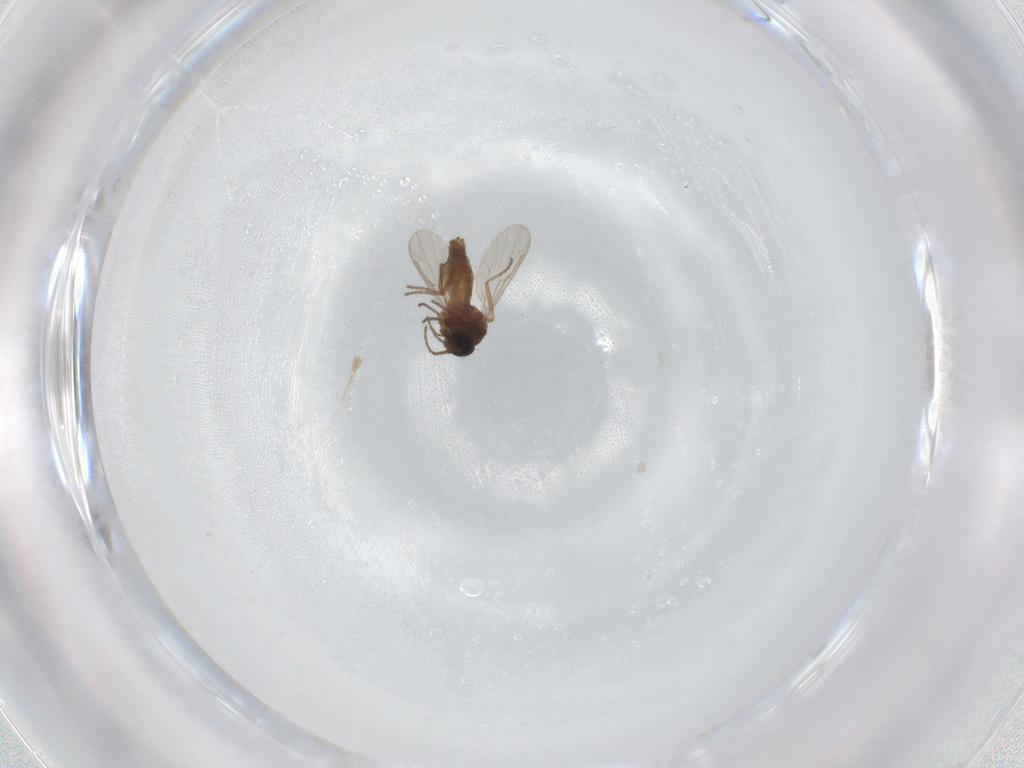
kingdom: Animalia
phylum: Arthropoda
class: Insecta
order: Diptera
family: Ceratopogonidae
